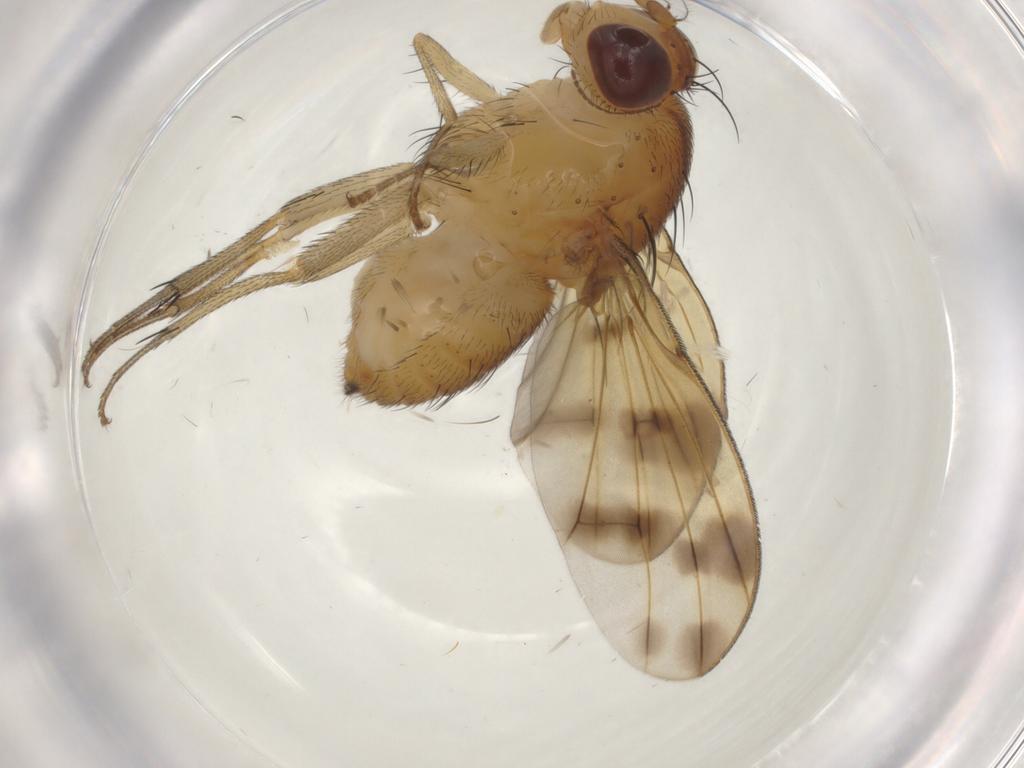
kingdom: Animalia
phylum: Arthropoda
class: Insecta
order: Diptera
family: Sciaridae
